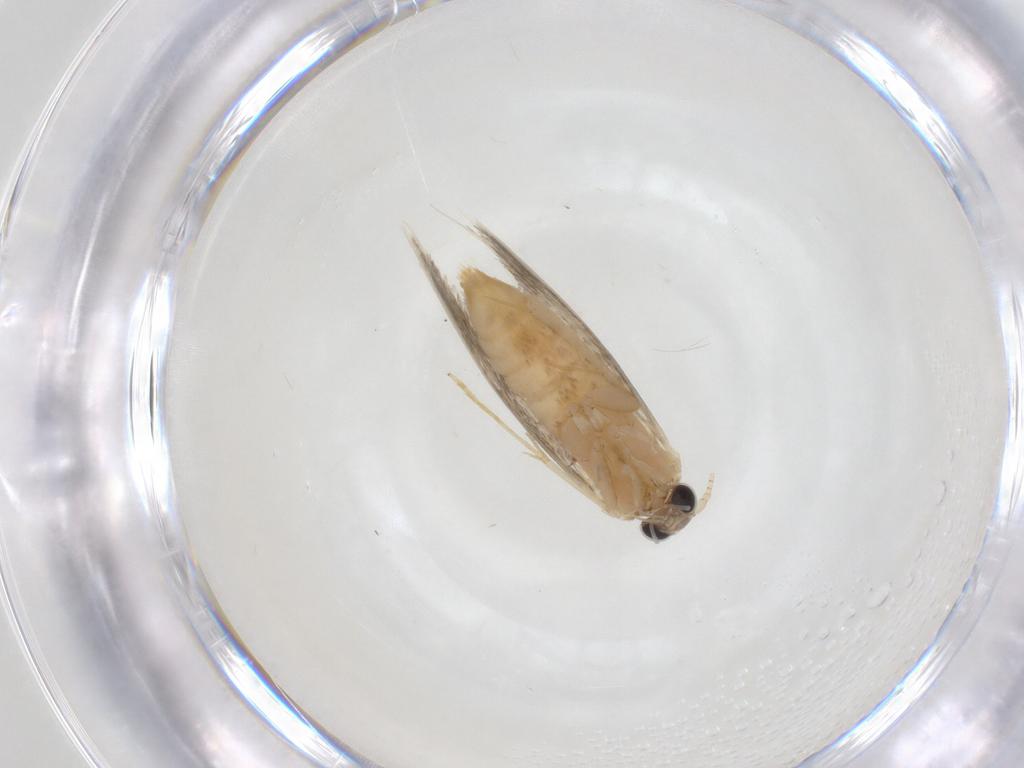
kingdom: Animalia
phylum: Arthropoda
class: Insecta
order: Lepidoptera
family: Tineidae
